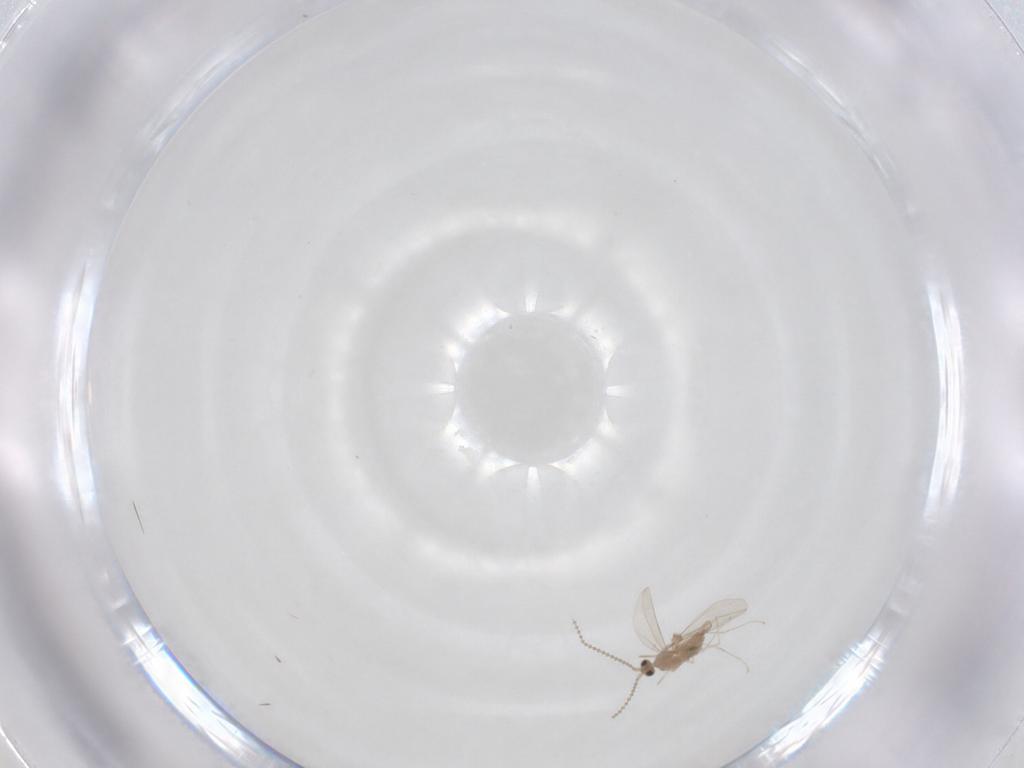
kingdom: Animalia
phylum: Arthropoda
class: Insecta
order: Diptera
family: Cecidomyiidae
